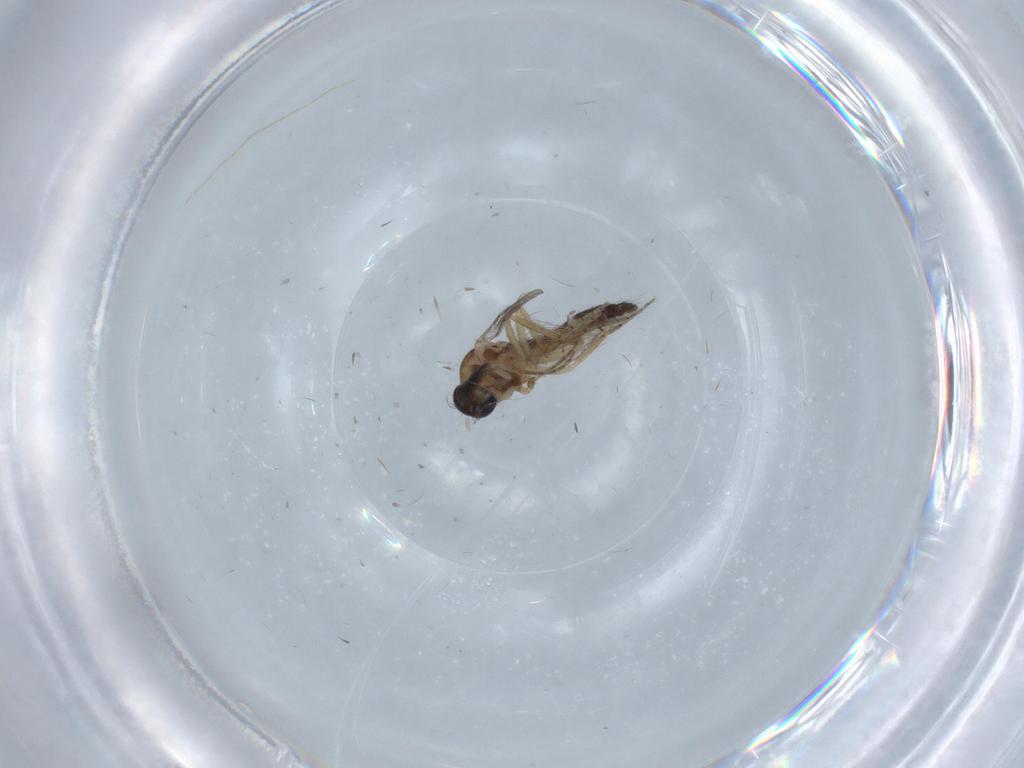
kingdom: Animalia
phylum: Arthropoda
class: Insecta
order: Diptera
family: Ceratopogonidae
